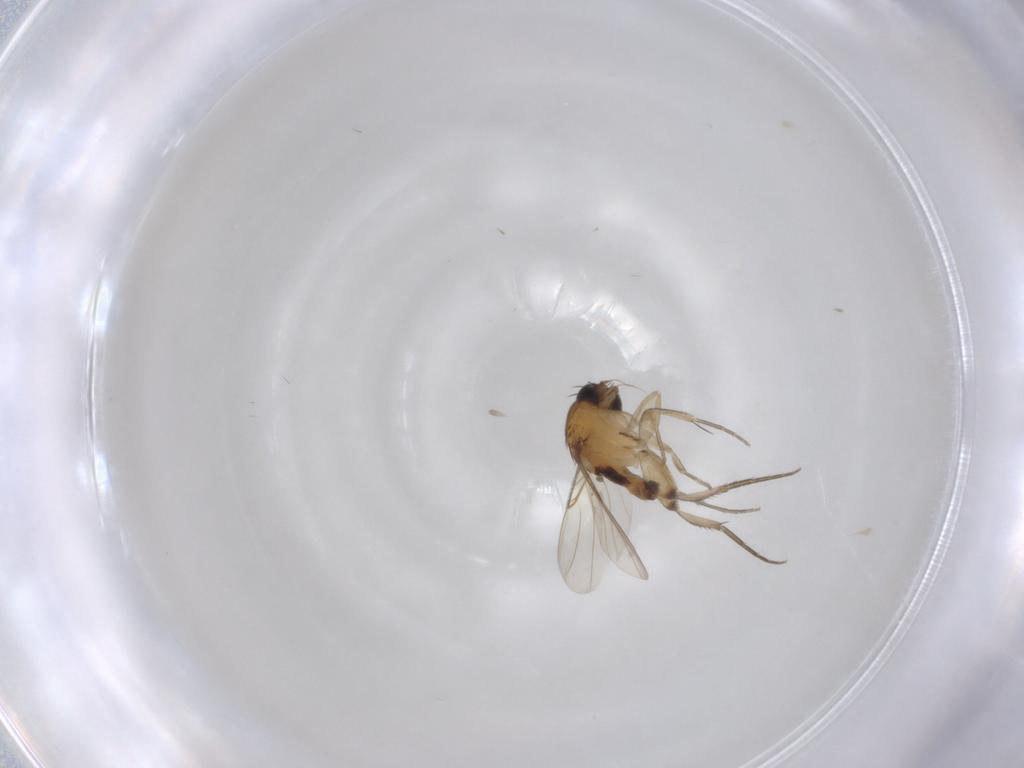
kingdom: Animalia
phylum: Arthropoda
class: Insecta
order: Diptera
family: Phoridae
